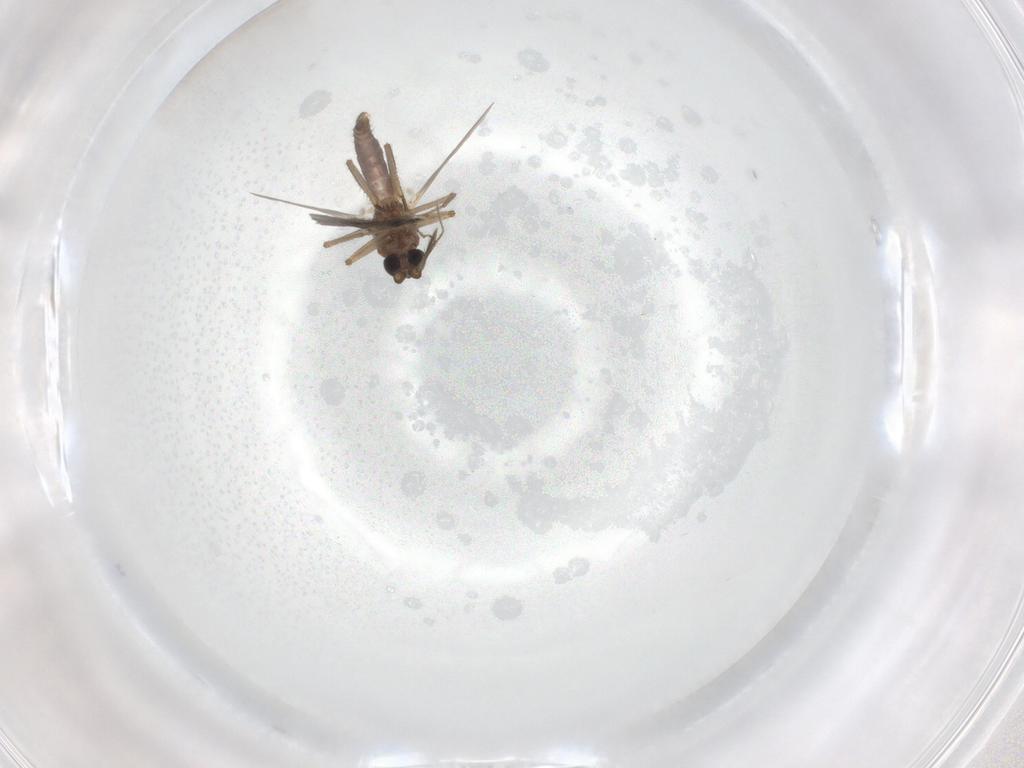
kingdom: Animalia
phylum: Arthropoda
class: Insecta
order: Diptera
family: Ceratopogonidae
